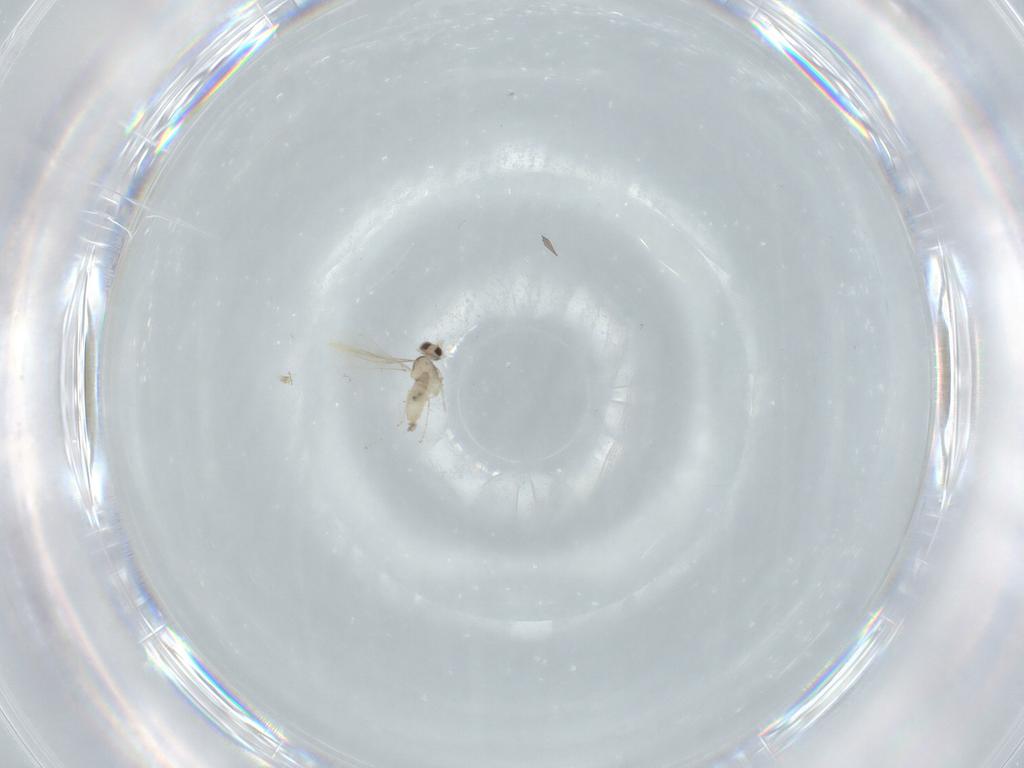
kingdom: Animalia
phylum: Arthropoda
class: Insecta
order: Diptera
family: Cecidomyiidae
